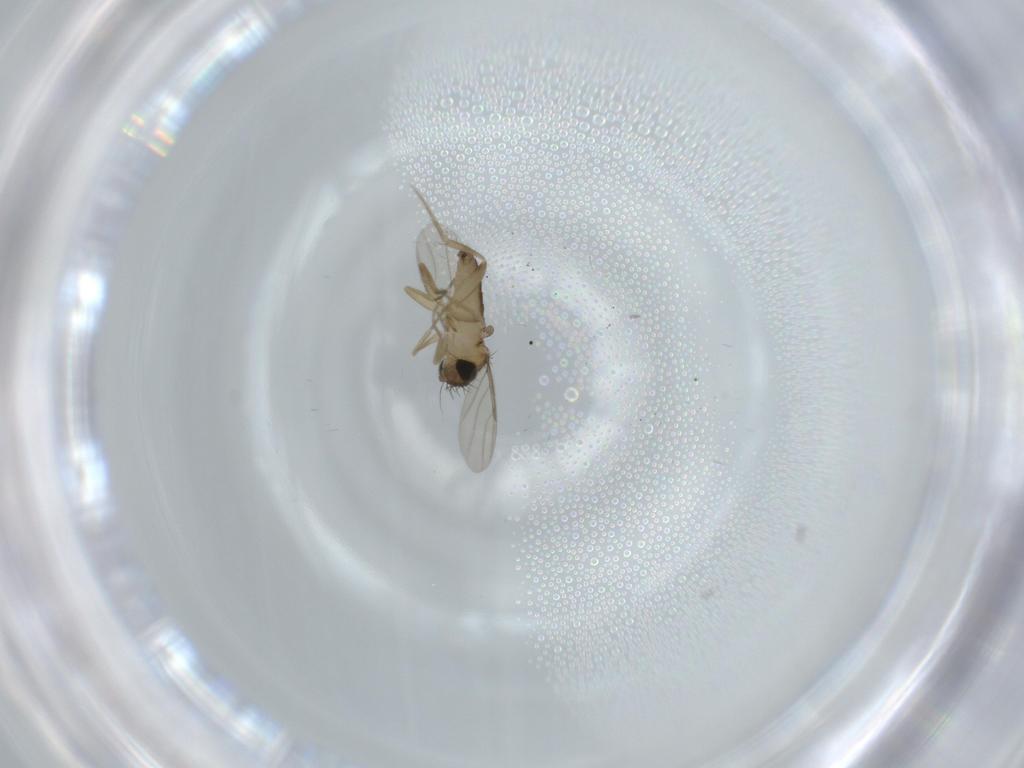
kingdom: Animalia
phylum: Arthropoda
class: Insecta
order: Diptera
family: Phoridae
